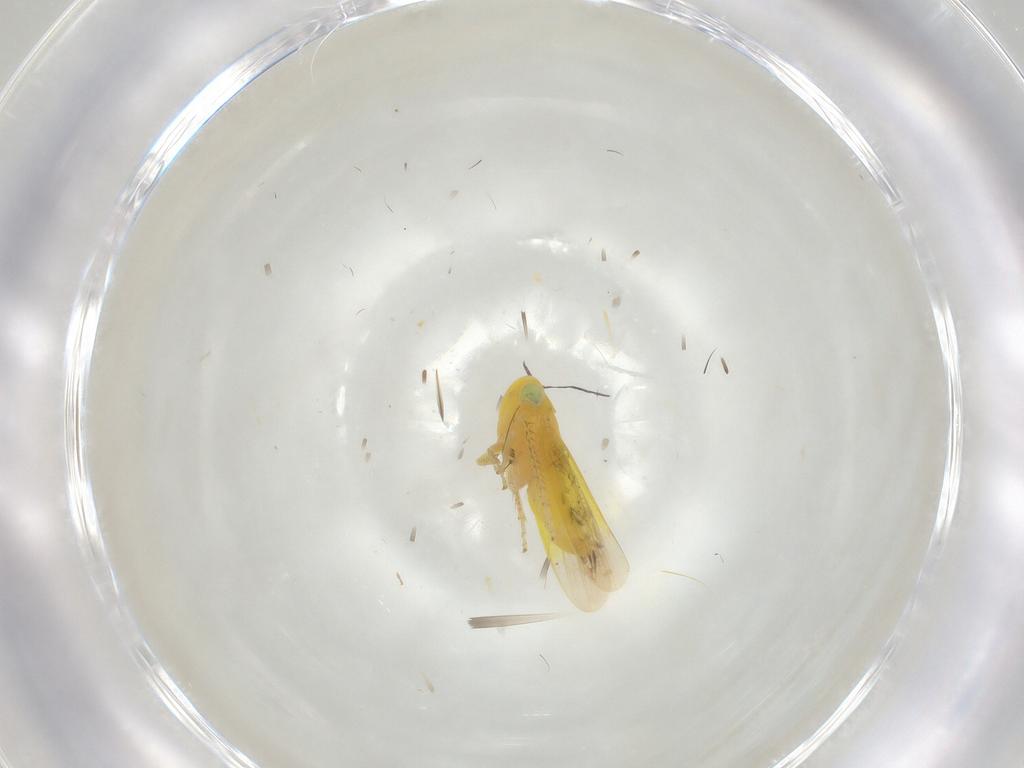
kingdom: Animalia
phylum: Arthropoda
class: Insecta
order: Hemiptera
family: Cicadellidae
